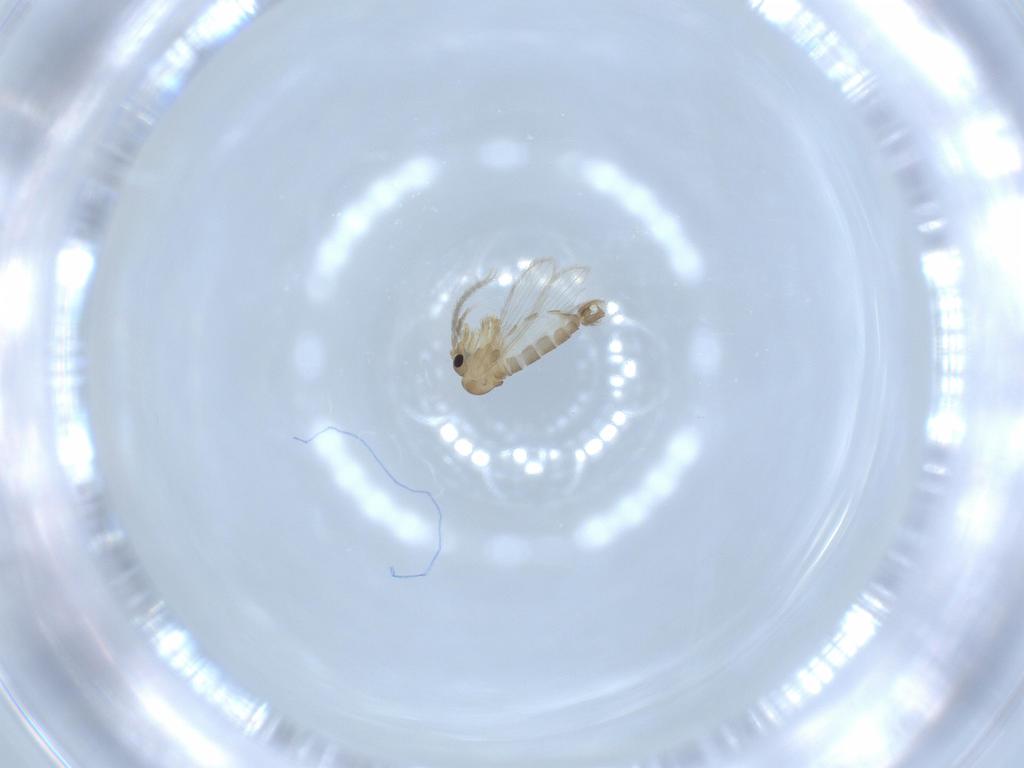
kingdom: Animalia
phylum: Arthropoda
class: Insecta
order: Diptera
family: Psychodidae
